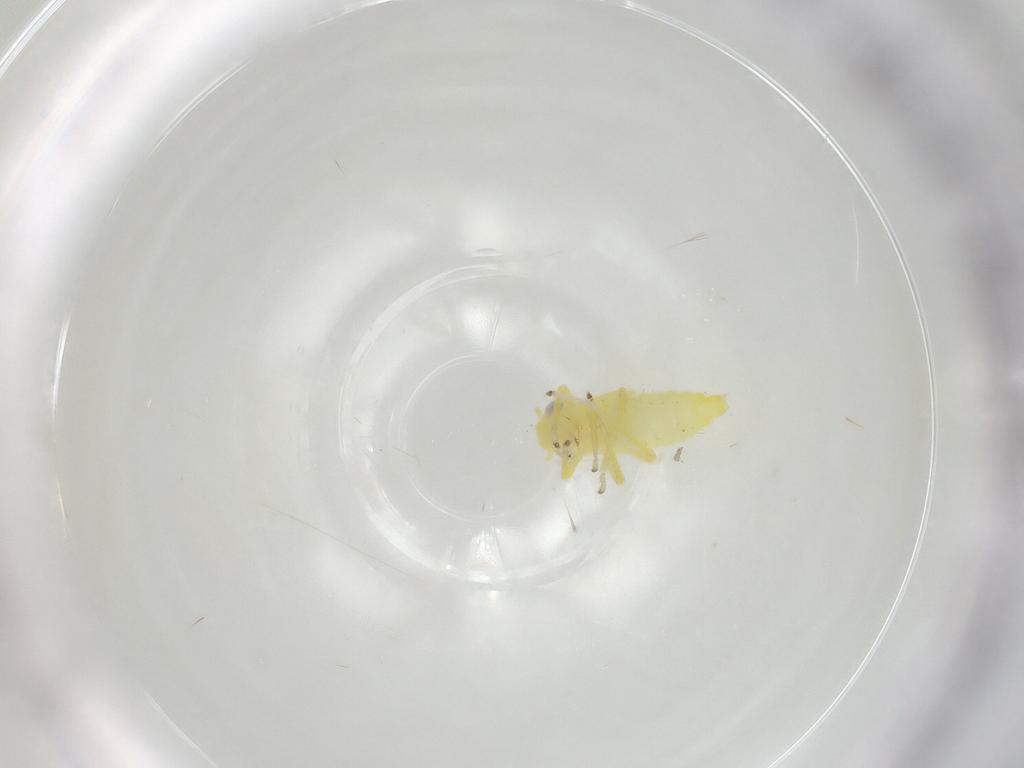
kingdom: Animalia
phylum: Arthropoda
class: Insecta
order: Hemiptera
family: Cicadellidae
